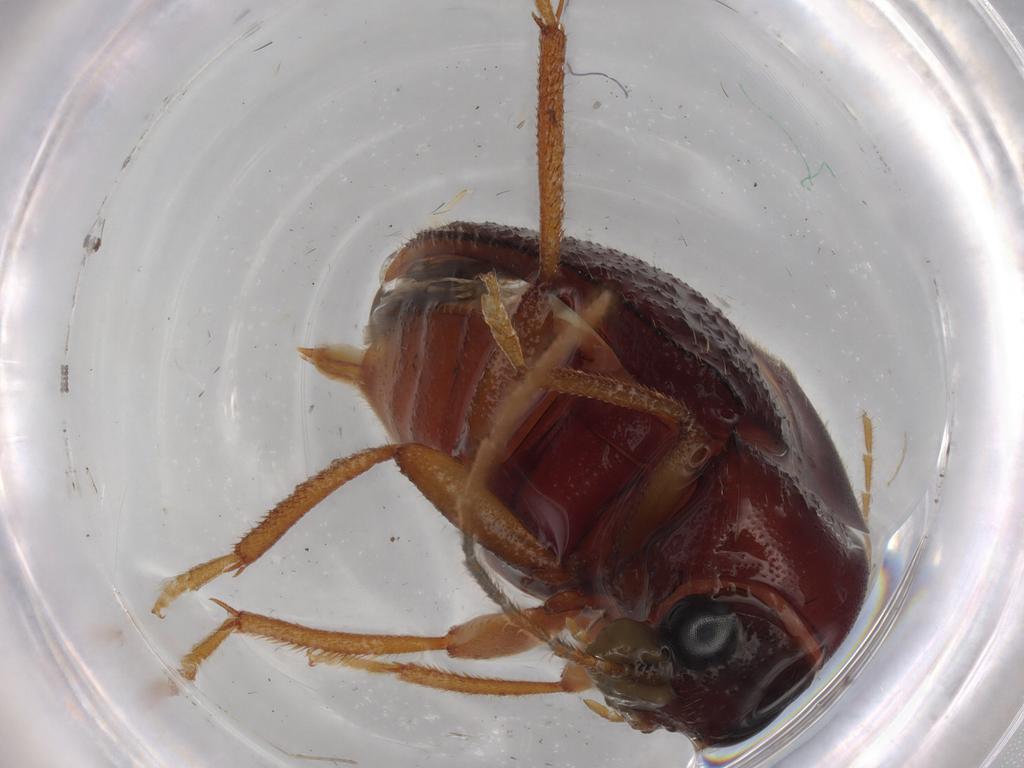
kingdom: Animalia
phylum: Arthropoda
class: Insecta
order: Coleoptera
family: Ptilodactylidae
